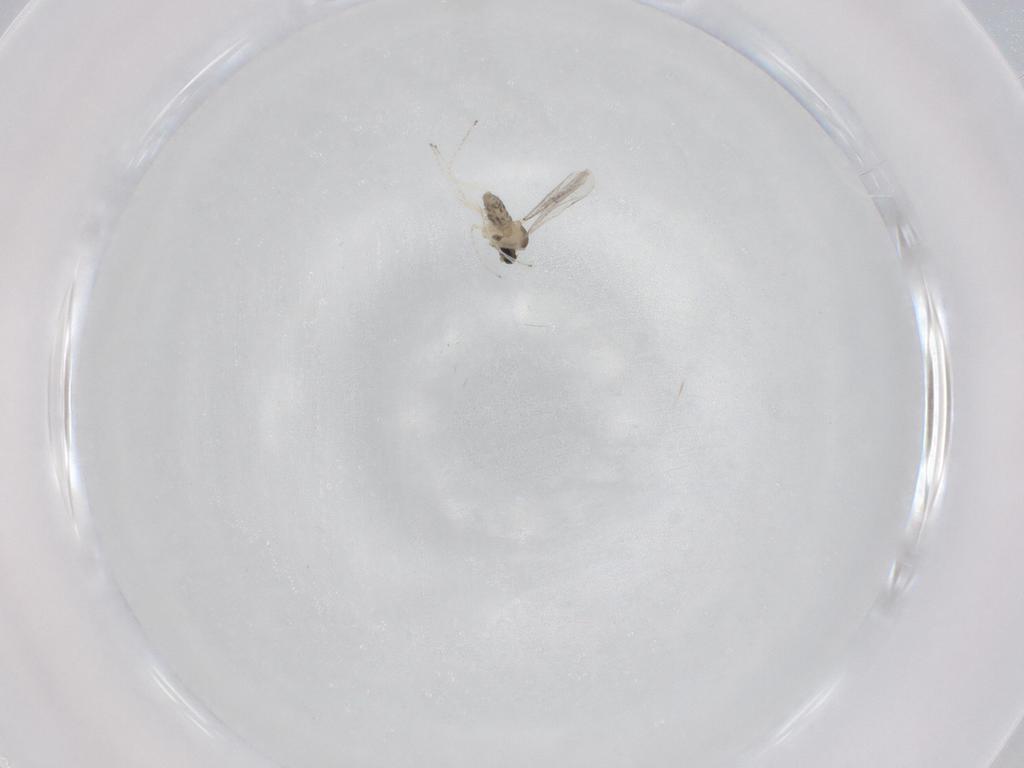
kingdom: Animalia
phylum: Arthropoda
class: Insecta
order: Diptera
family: Cecidomyiidae
